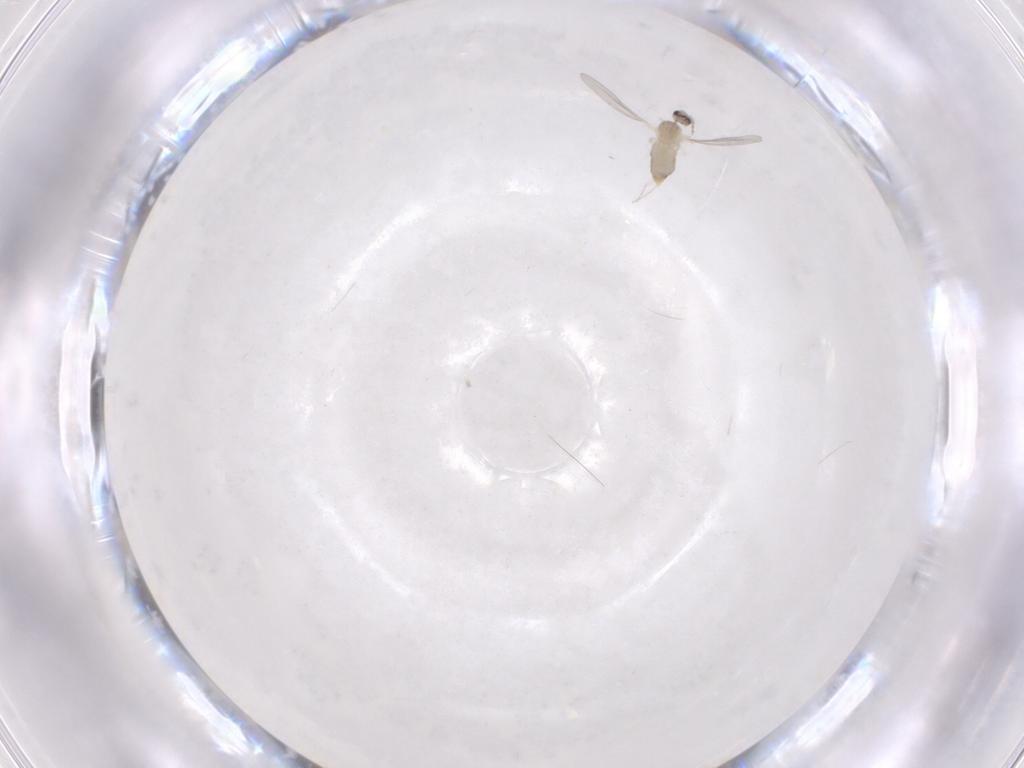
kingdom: Animalia
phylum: Arthropoda
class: Insecta
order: Diptera
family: Cecidomyiidae
